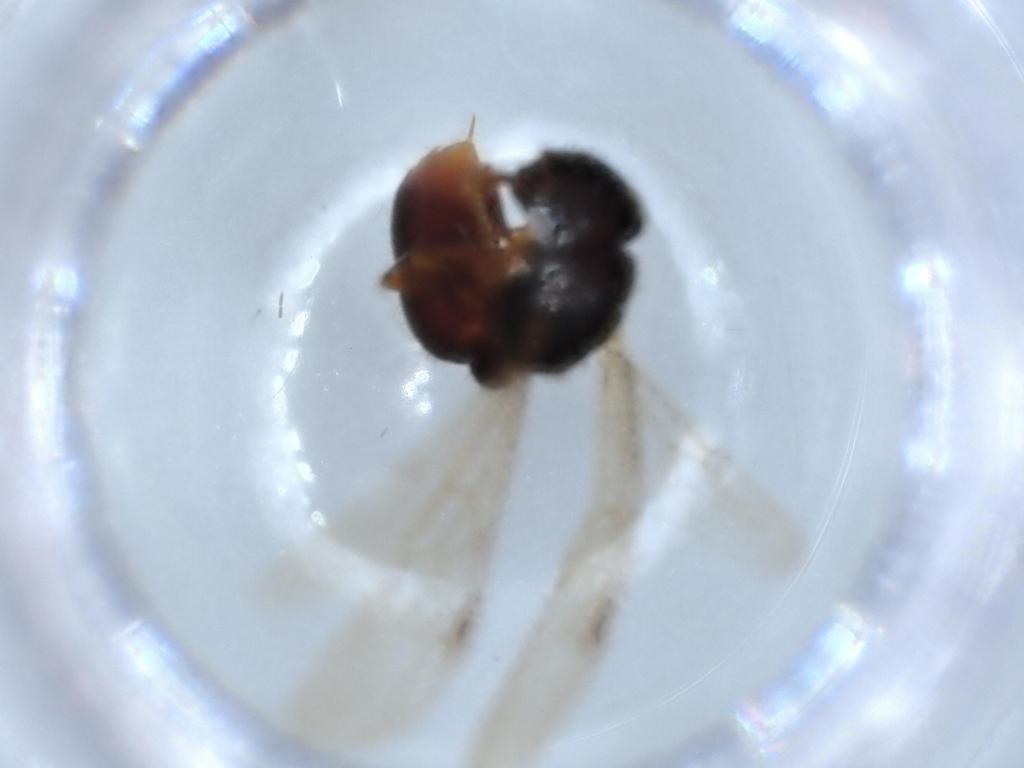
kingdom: Animalia
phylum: Arthropoda
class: Insecta
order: Hymenoptera
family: Formicidae
